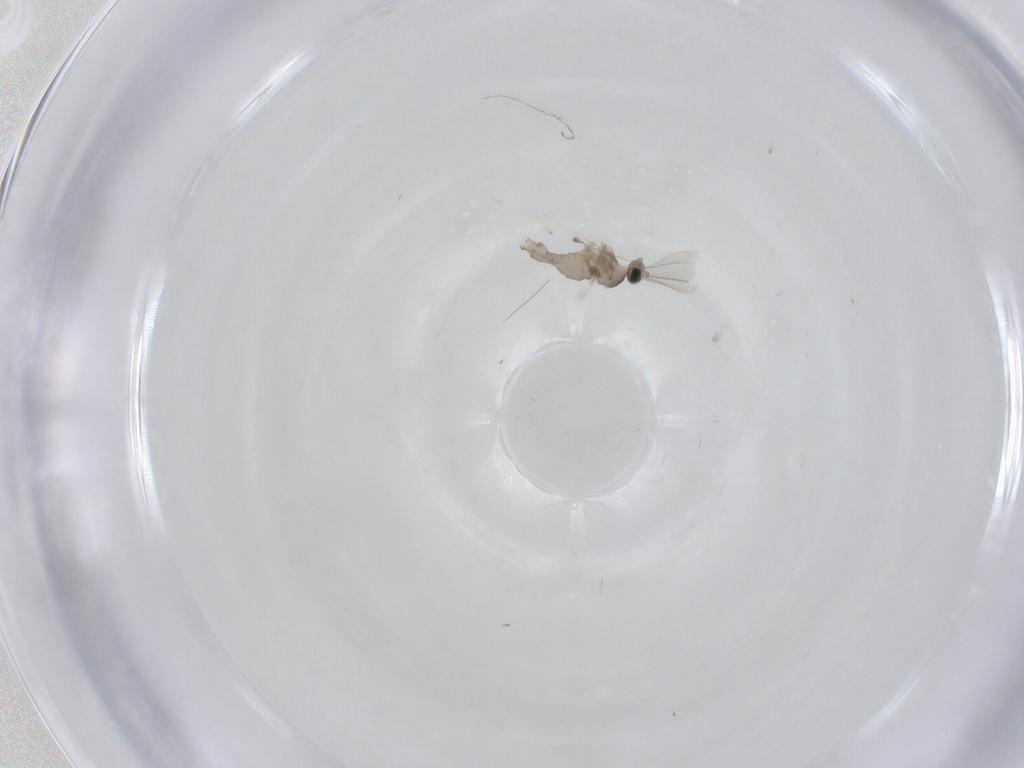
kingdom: Animalia
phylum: Arthropoda
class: Insecta
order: Diptera
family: Cecidomyiidae
